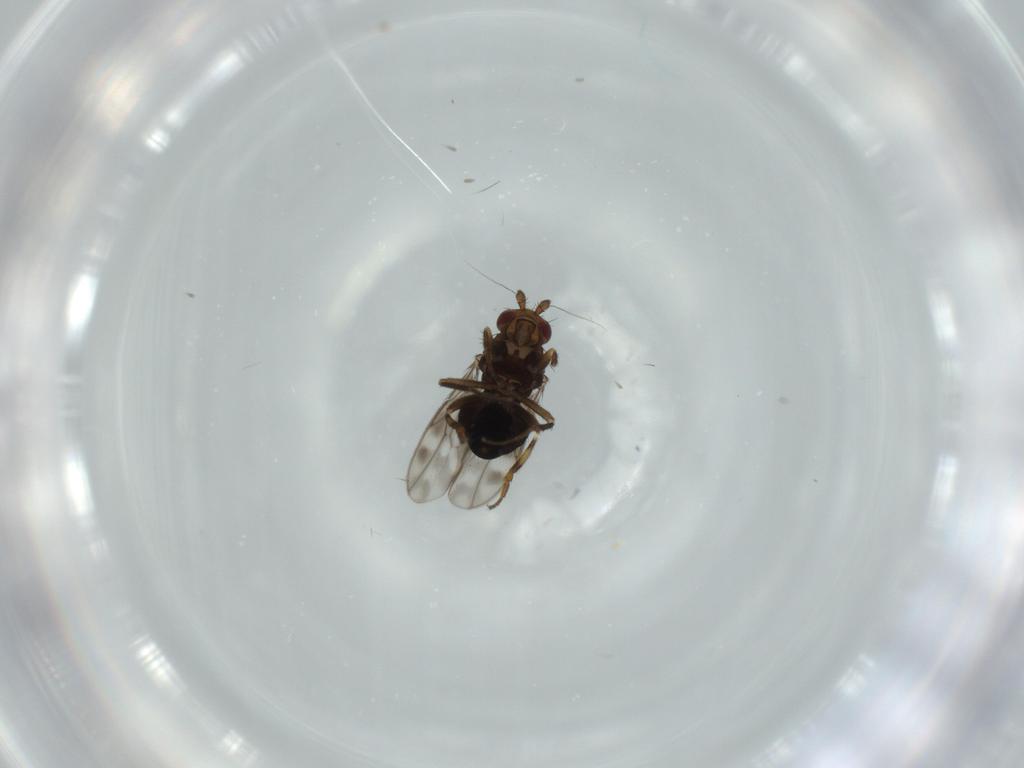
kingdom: Animalia
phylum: Arthropoda
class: Insecta
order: Diptera
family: Sphaeroceridae
